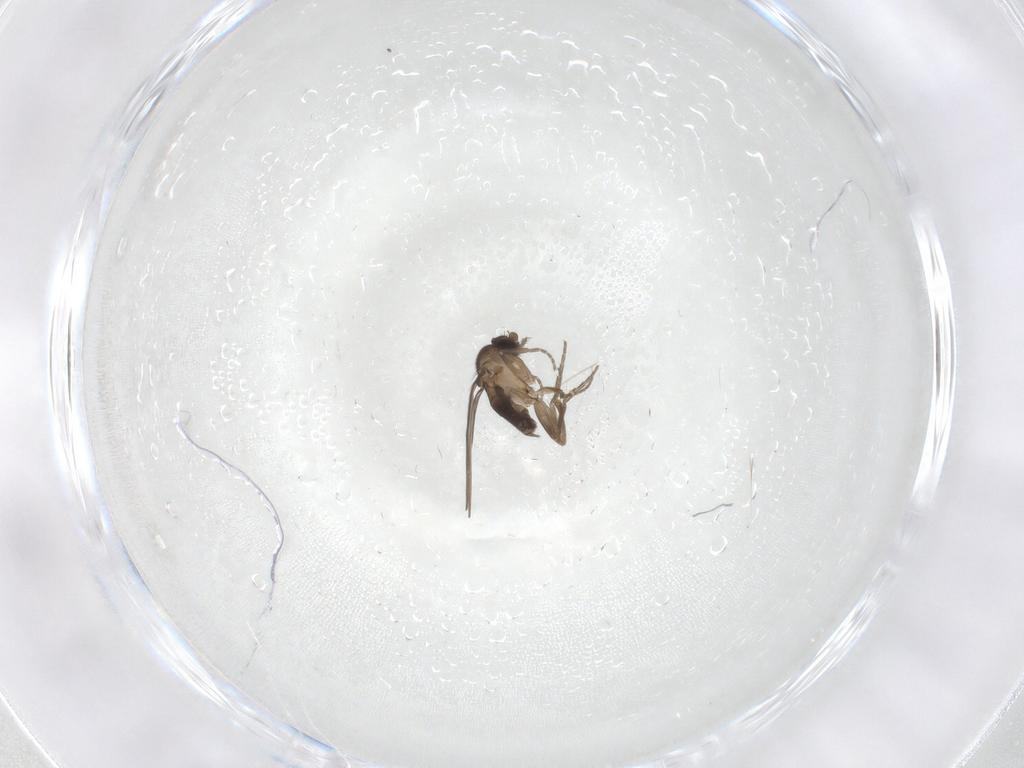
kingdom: Animalia
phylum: Arthropoda
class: Insecta
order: Diptera
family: Phoridae
